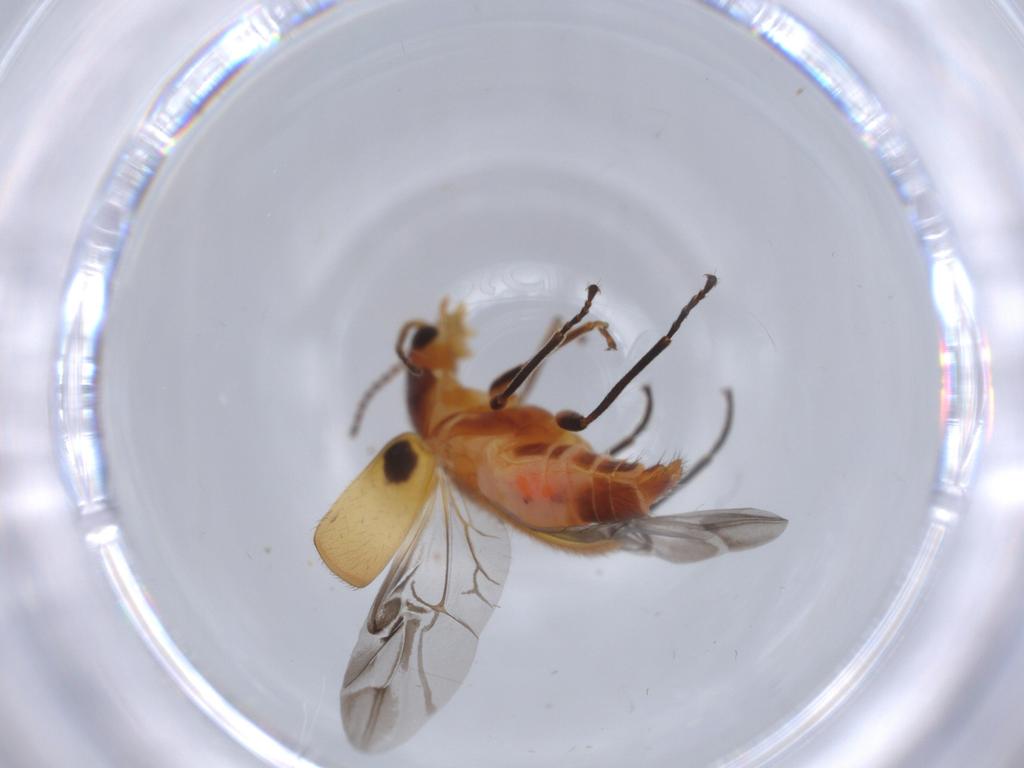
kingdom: Animalia
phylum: Arthropoda
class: Insecta
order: Coleoptera
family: Melyridae
